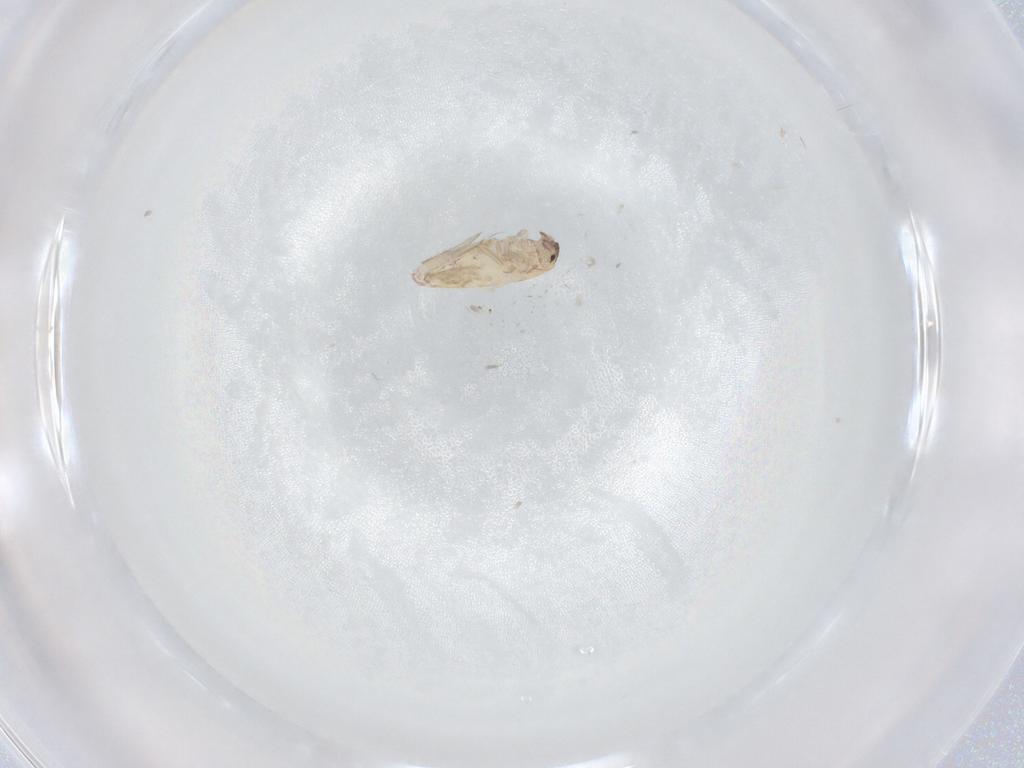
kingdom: Animalia
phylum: Arthropoda
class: Collembola
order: Entomobryomorpha
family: Entomobryidae
